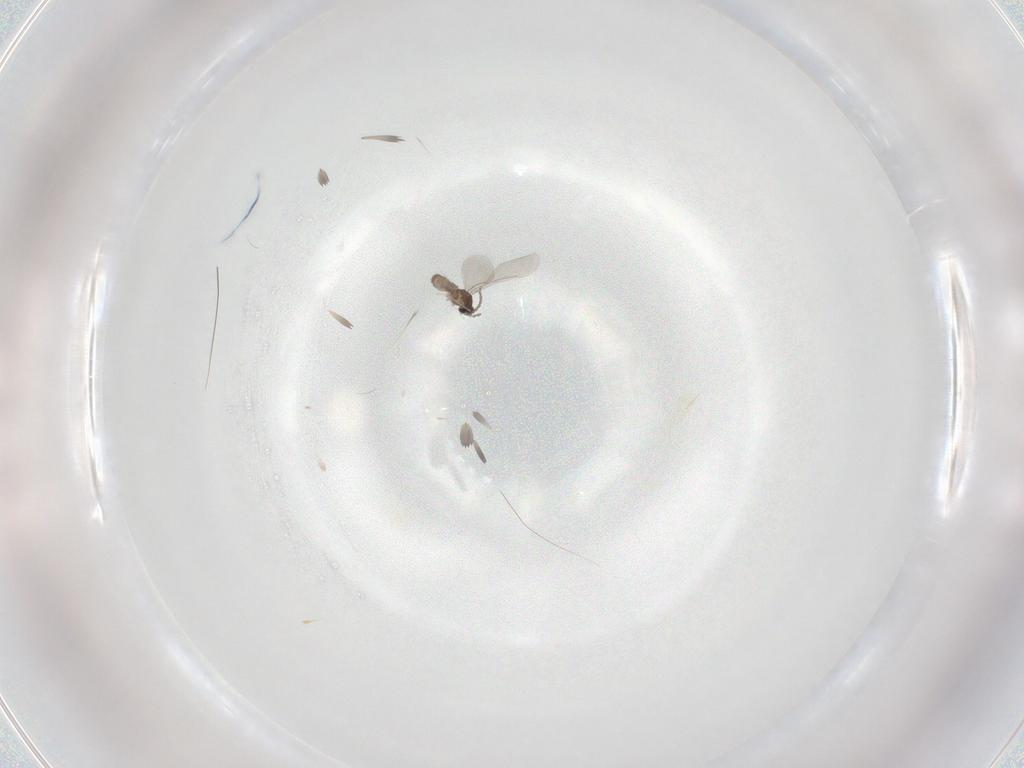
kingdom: Animalia
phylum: Arthropoda
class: Insecta
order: Diptera
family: Cecidomyiidae
